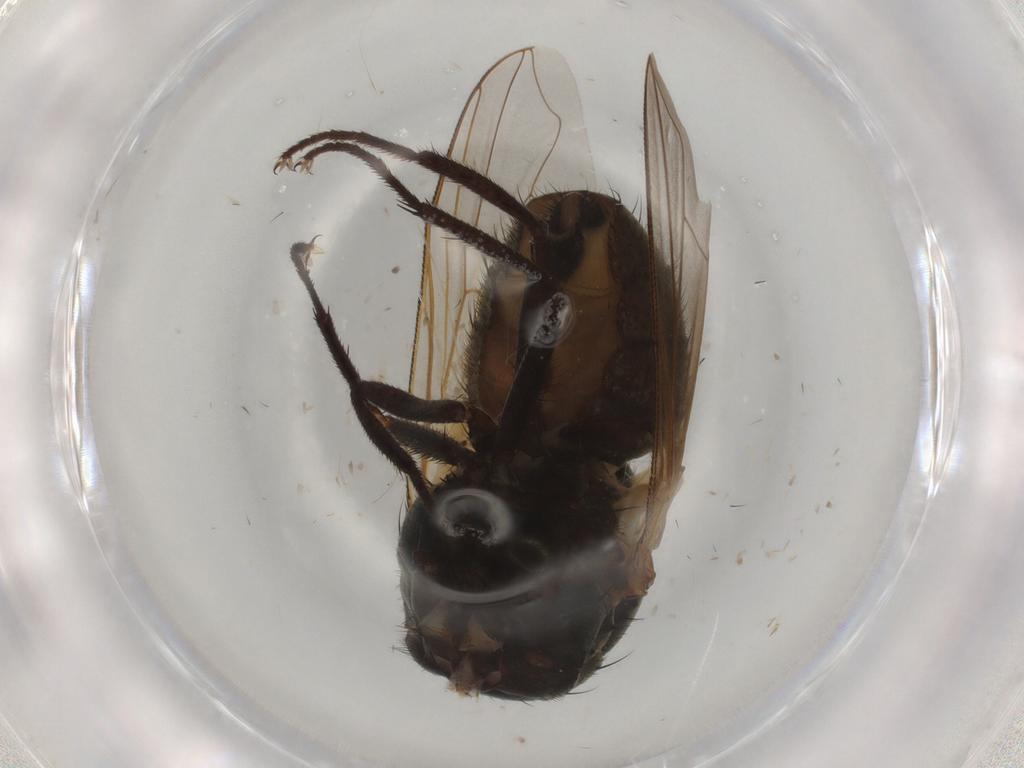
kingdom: Animalia
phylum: Arthropoda
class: Insecta
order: Diptera
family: Muscidae
